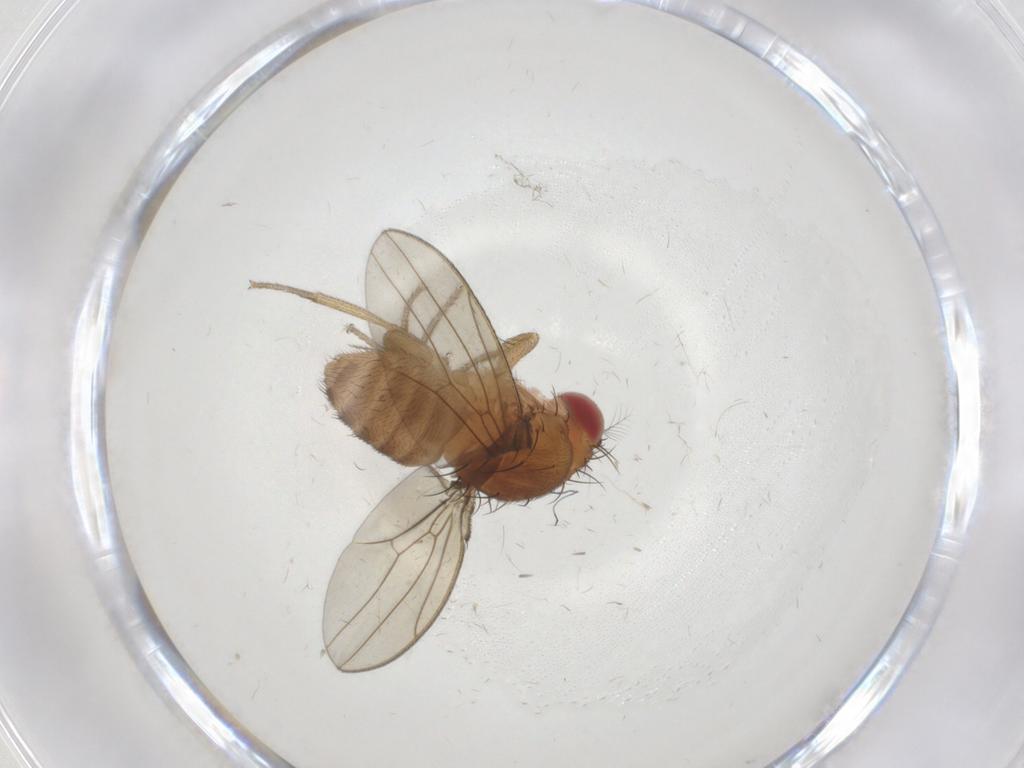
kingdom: Animalia
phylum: Arthropoda
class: Insecta
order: Diptera
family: Drosophilidae
